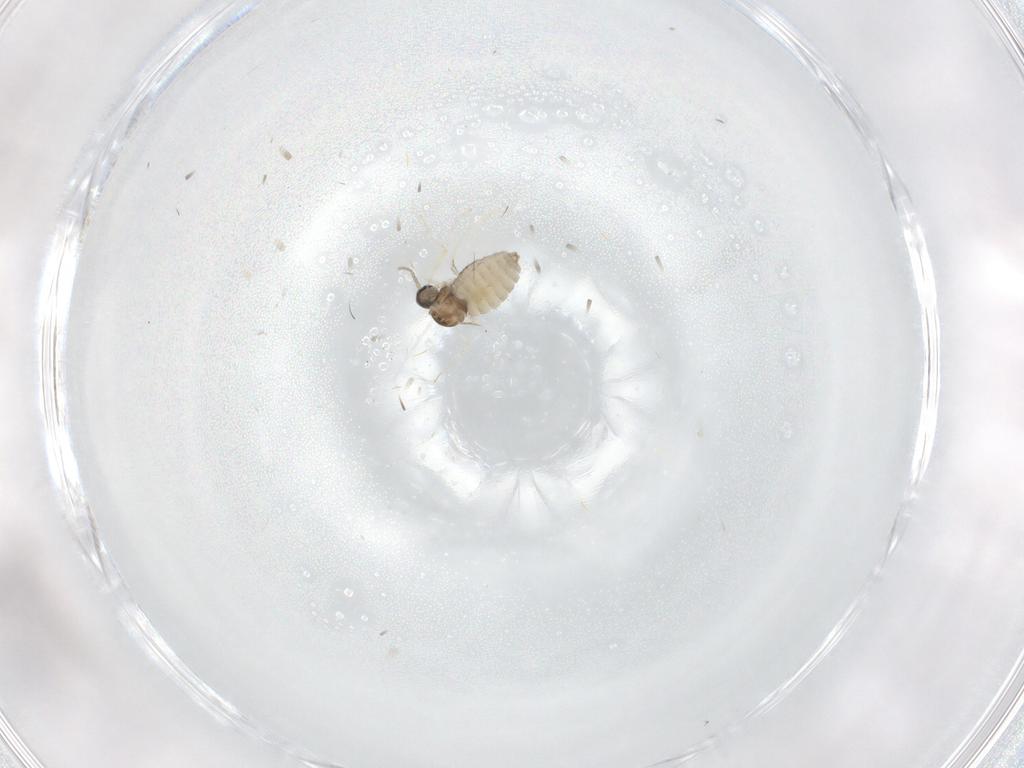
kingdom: Animalia
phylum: Arthropoda
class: Insecta
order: Diptera
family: Cecidomyiidae
